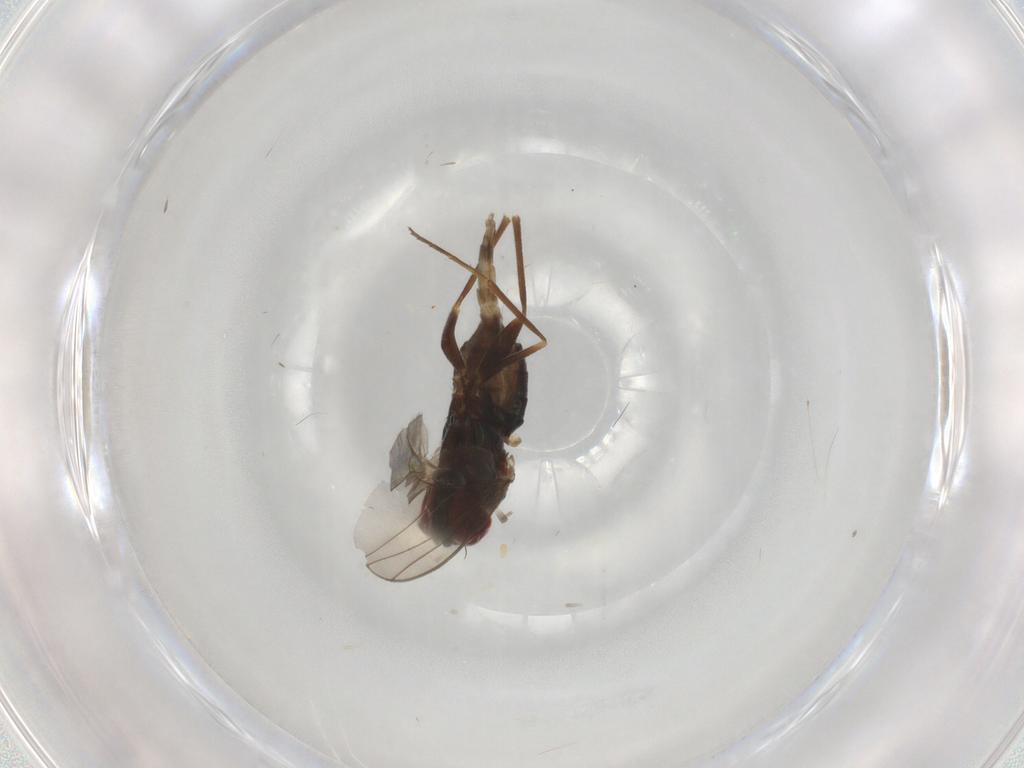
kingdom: Animalia
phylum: Arthropoda
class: Insecta
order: Diptera
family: Dolichopodidae
